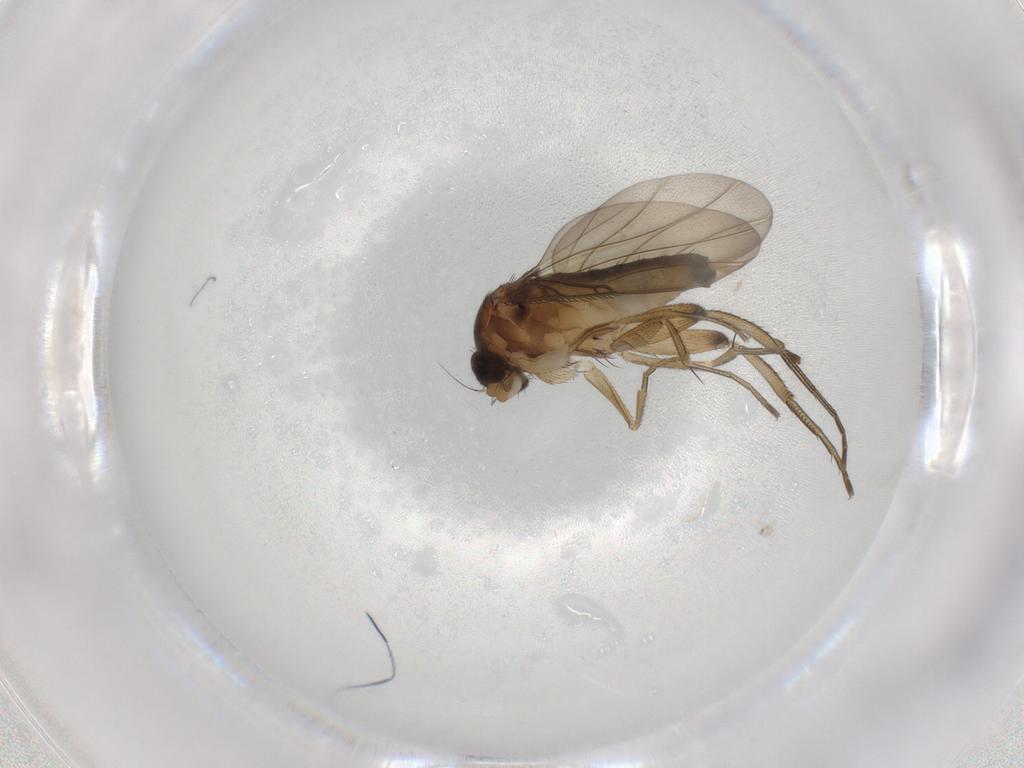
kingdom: Animalia
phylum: Arthropoda
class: Insecta
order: Diptera
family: Phoridae
